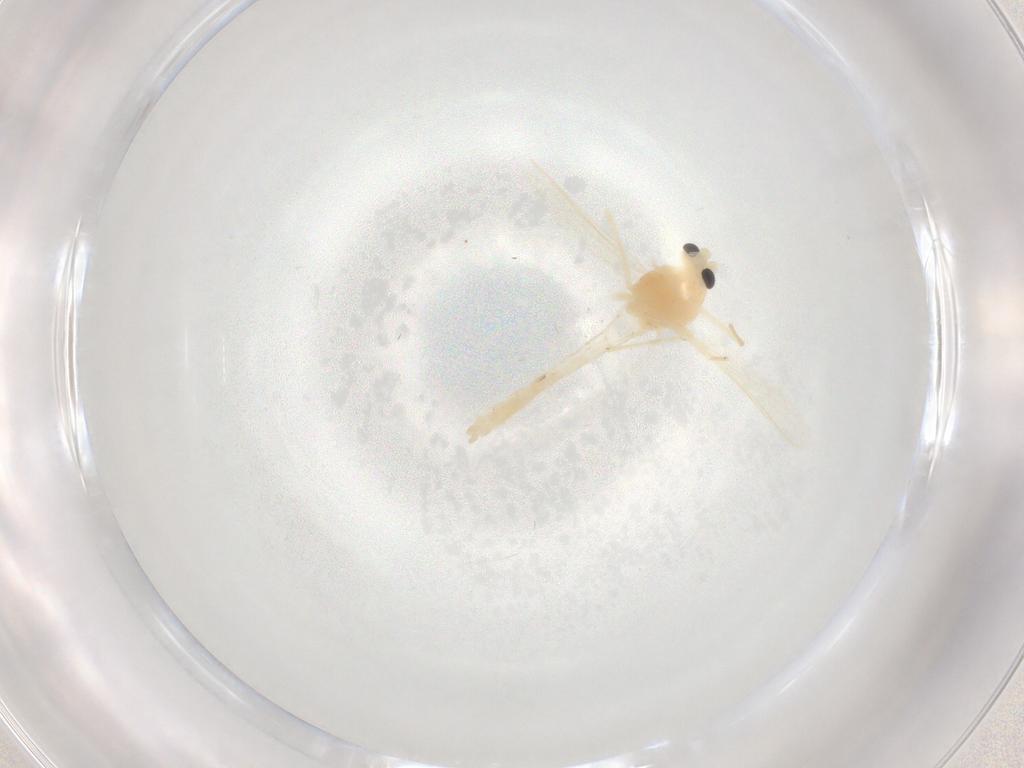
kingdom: Animalia
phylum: Arthropoda
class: Insecta
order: Diptera
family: Chironomidae
